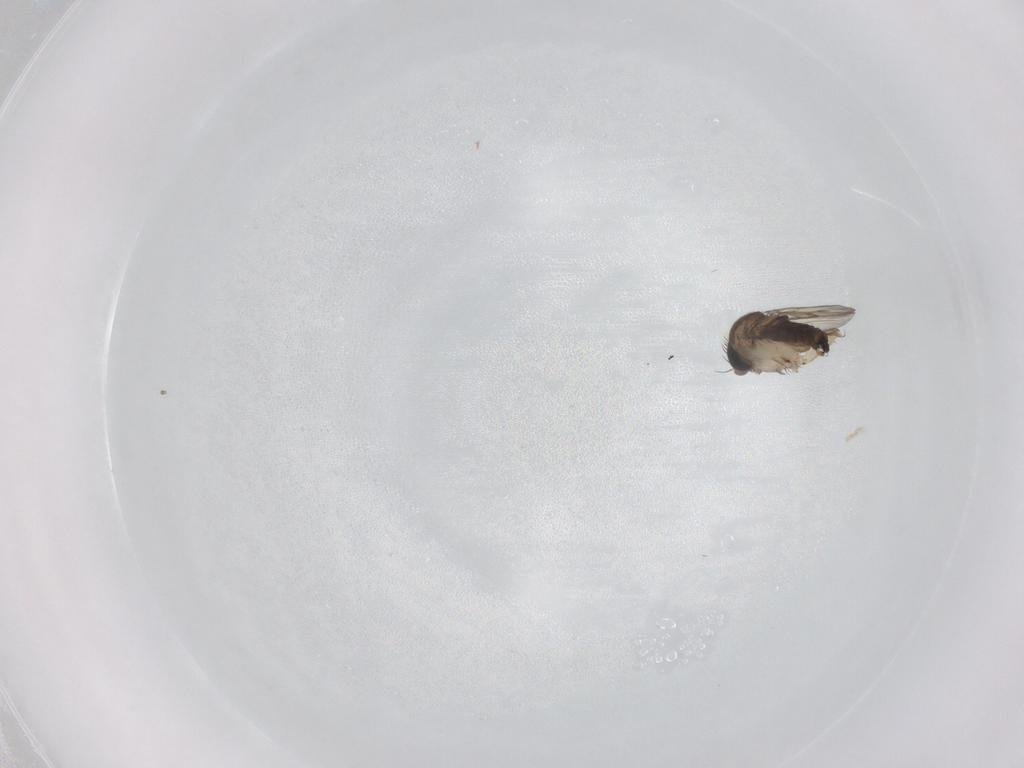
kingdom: Animalia
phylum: Arthropoda
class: Insecta
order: Diptera
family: Phoridae
